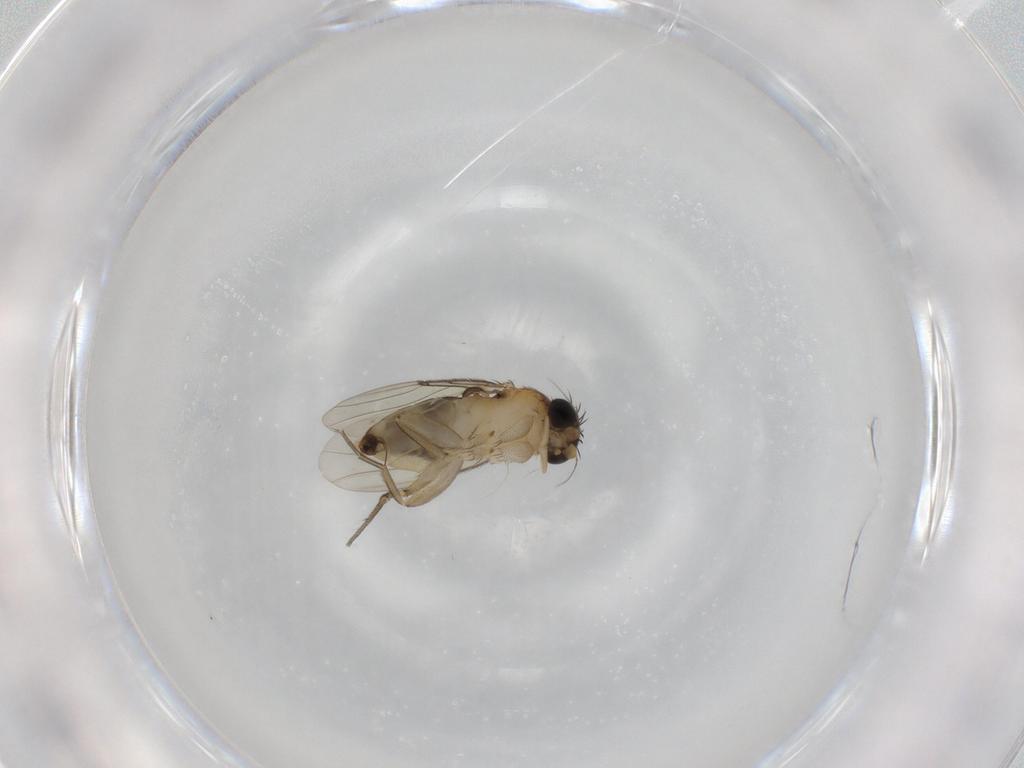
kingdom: Animalia
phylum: Arthropoda
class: Insecta
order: Diptera
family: Phoridae
